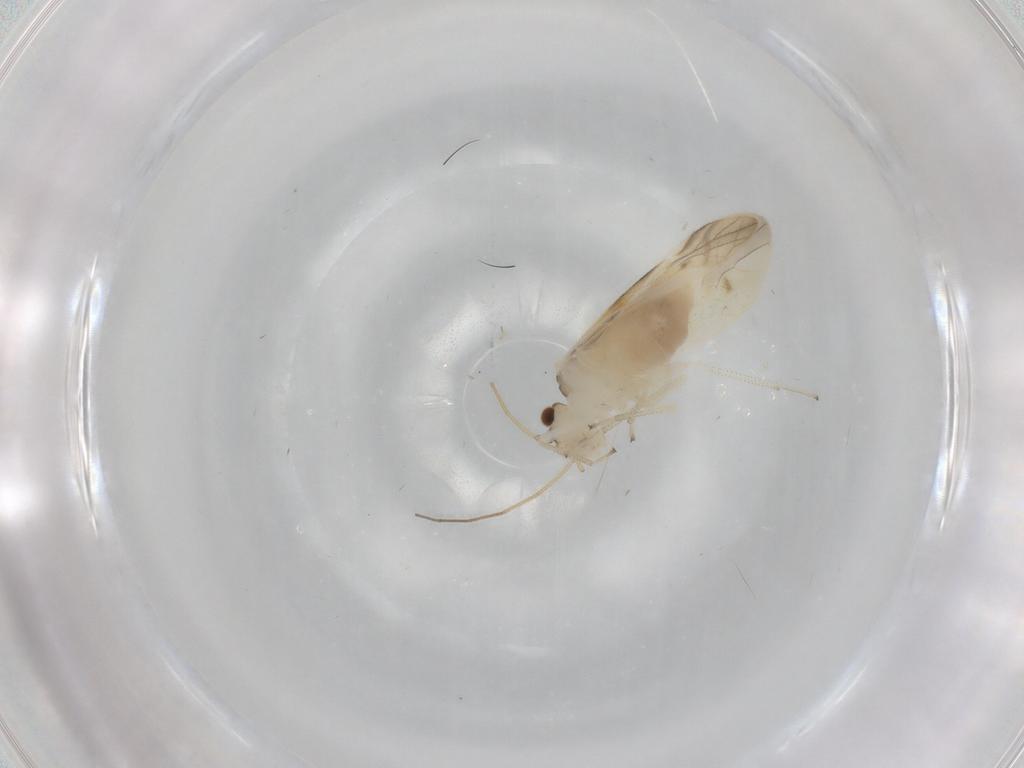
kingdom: Animalia
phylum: Arthropoda
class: Insecta
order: Psocodea
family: Caeciliusidae
